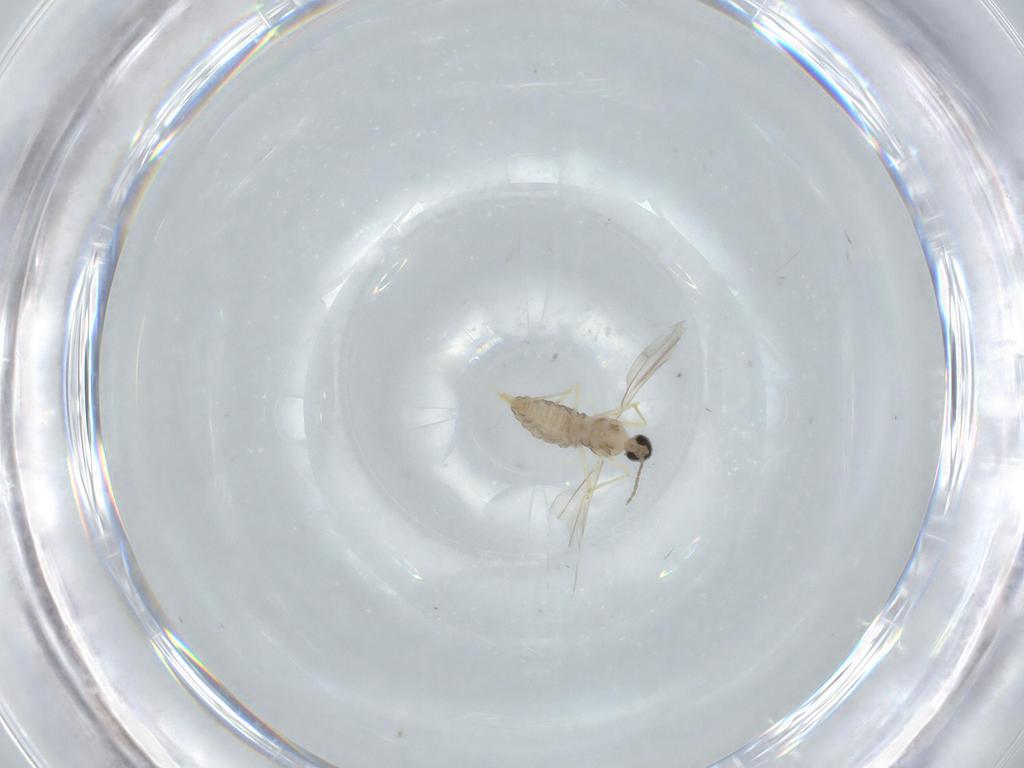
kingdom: Animalia
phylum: Arthropoda
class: Insecta
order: Diptera
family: Cecidomyiidae
